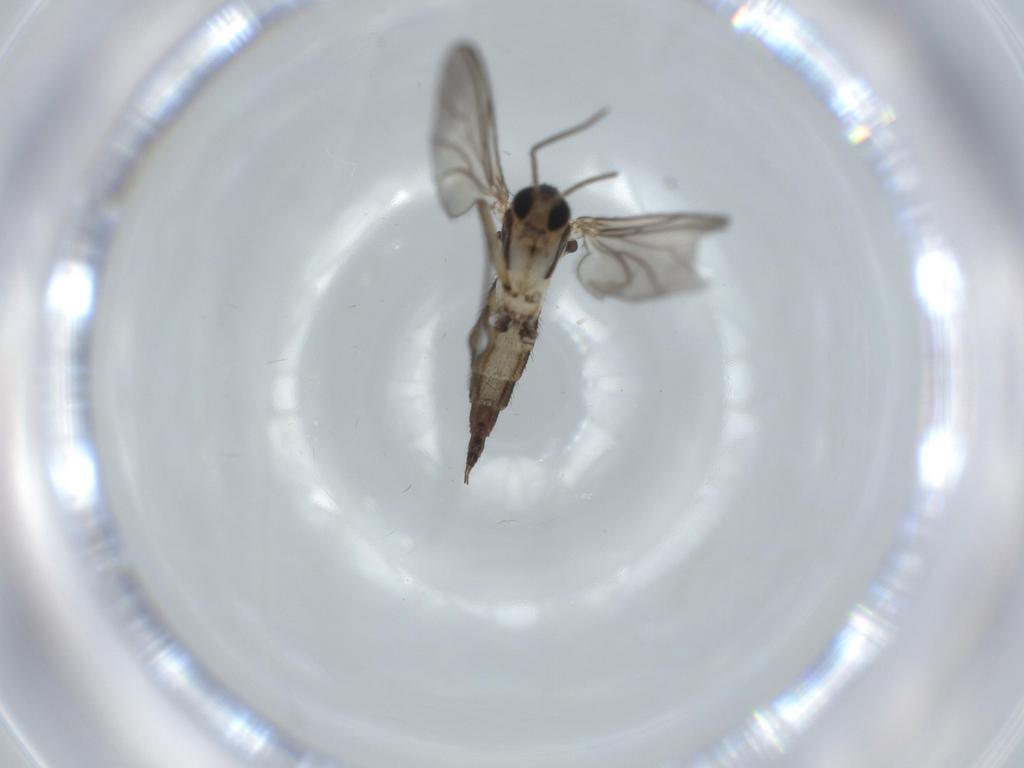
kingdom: Animalia
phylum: Arthropoda
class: Insecta
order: Diptera
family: Sciaridae
